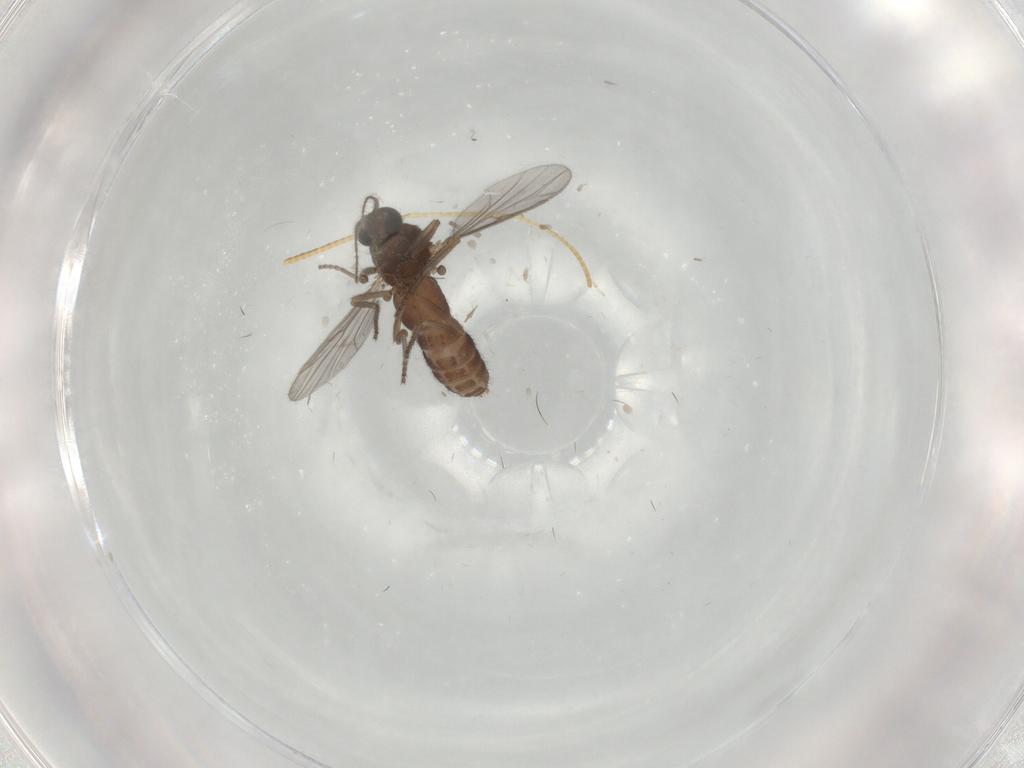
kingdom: Animalia
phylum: Arthropoda
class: Insecta
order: Diptera
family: Ceratopogonidae
